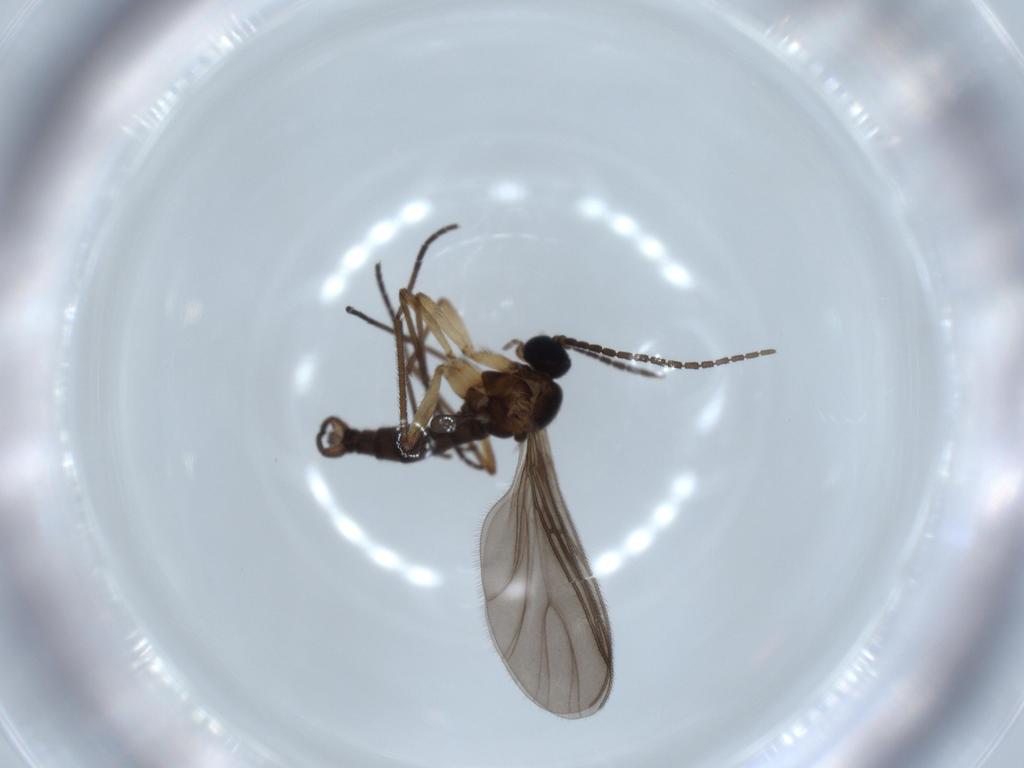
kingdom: Animalia
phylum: Arthropoda
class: Insecta
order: Diptera
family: Sciaridae
